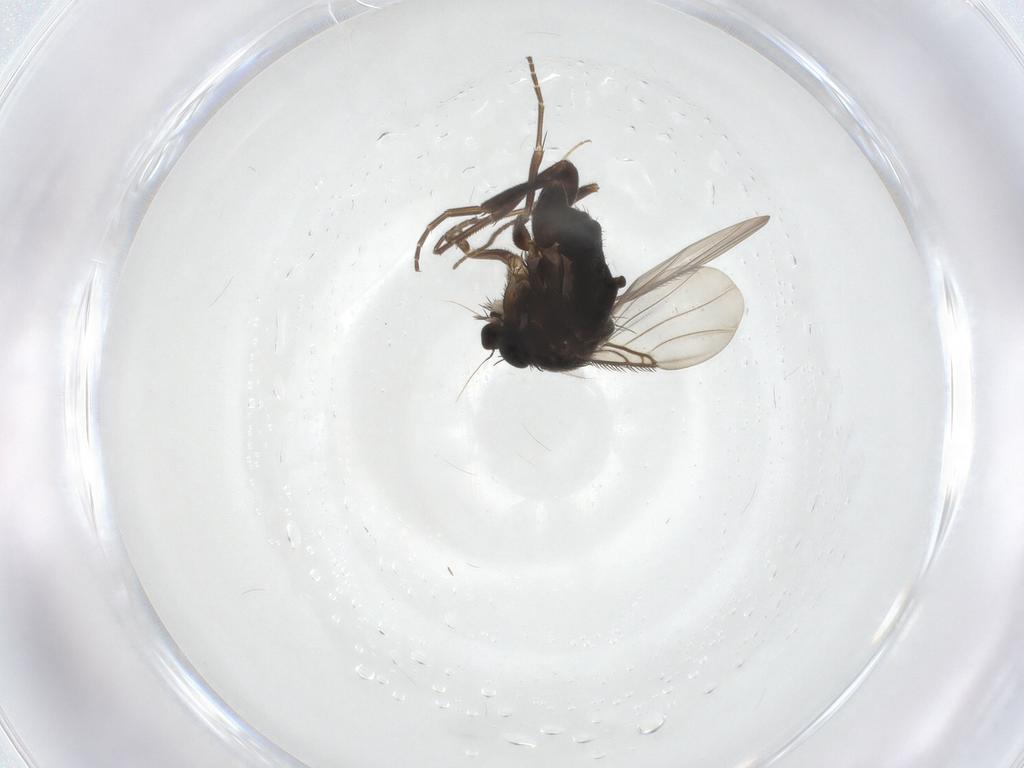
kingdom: Animalia
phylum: Arthropoda
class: Insecta
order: Diptera
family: Phoridae
